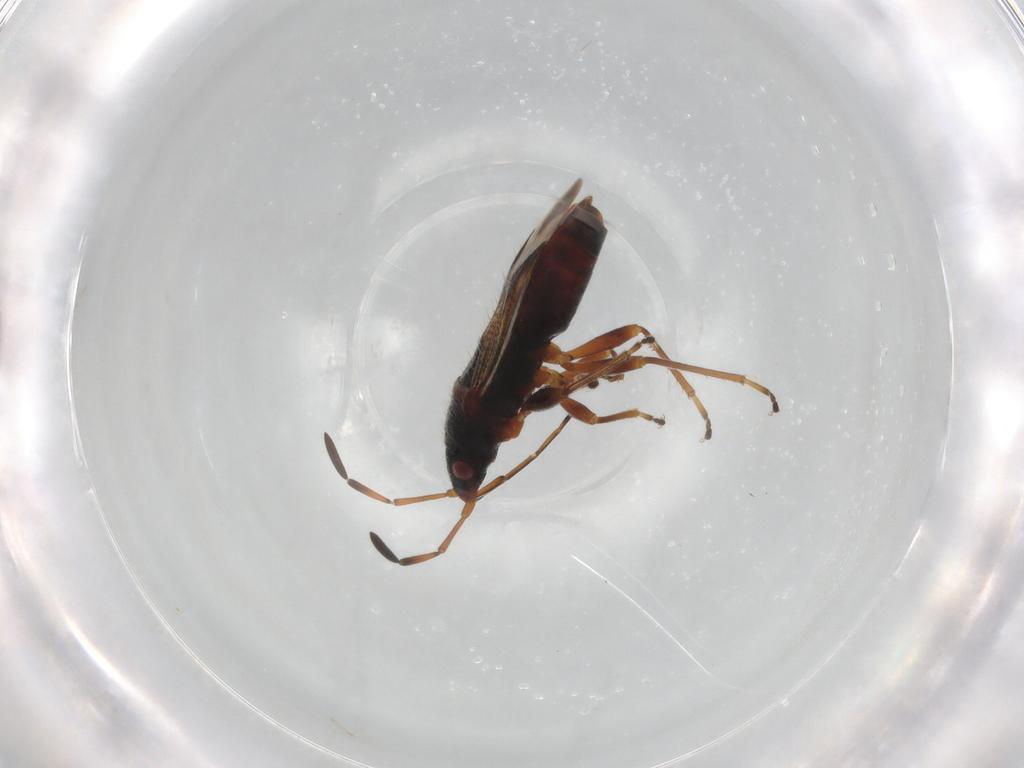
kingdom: Animalia
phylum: Arthropoda
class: Insecta
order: Hemiptera
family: Rhyparochromidae
